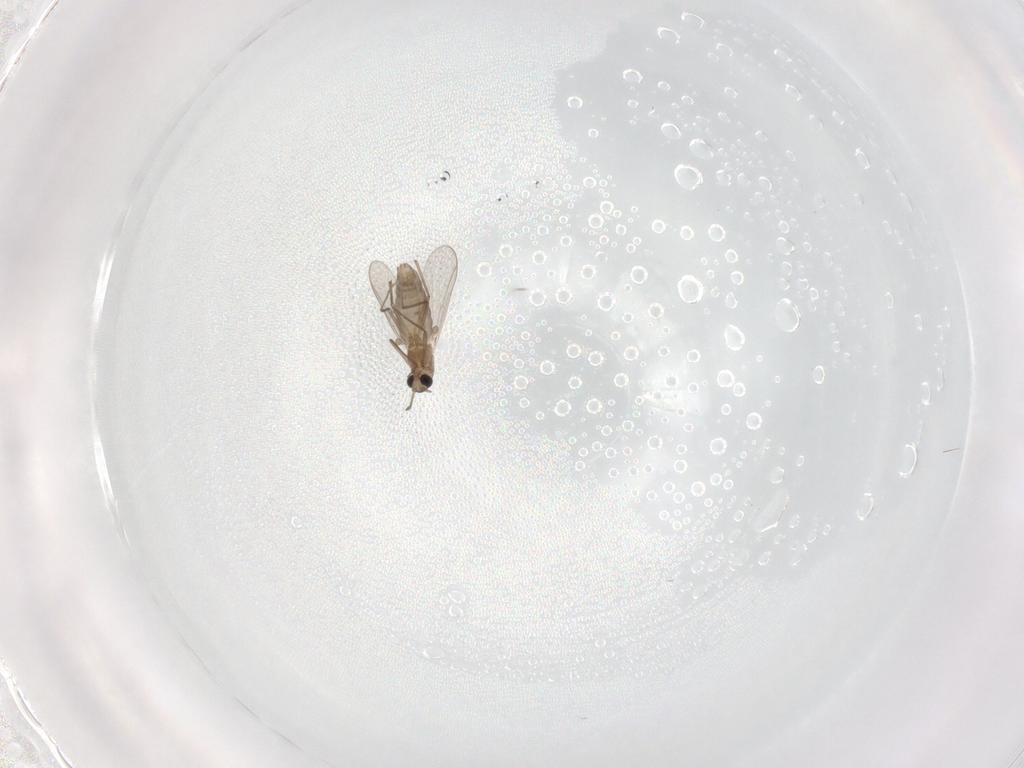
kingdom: Animalia
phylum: Arthropoda
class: Insecta
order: Diptera
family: Chironomidae
